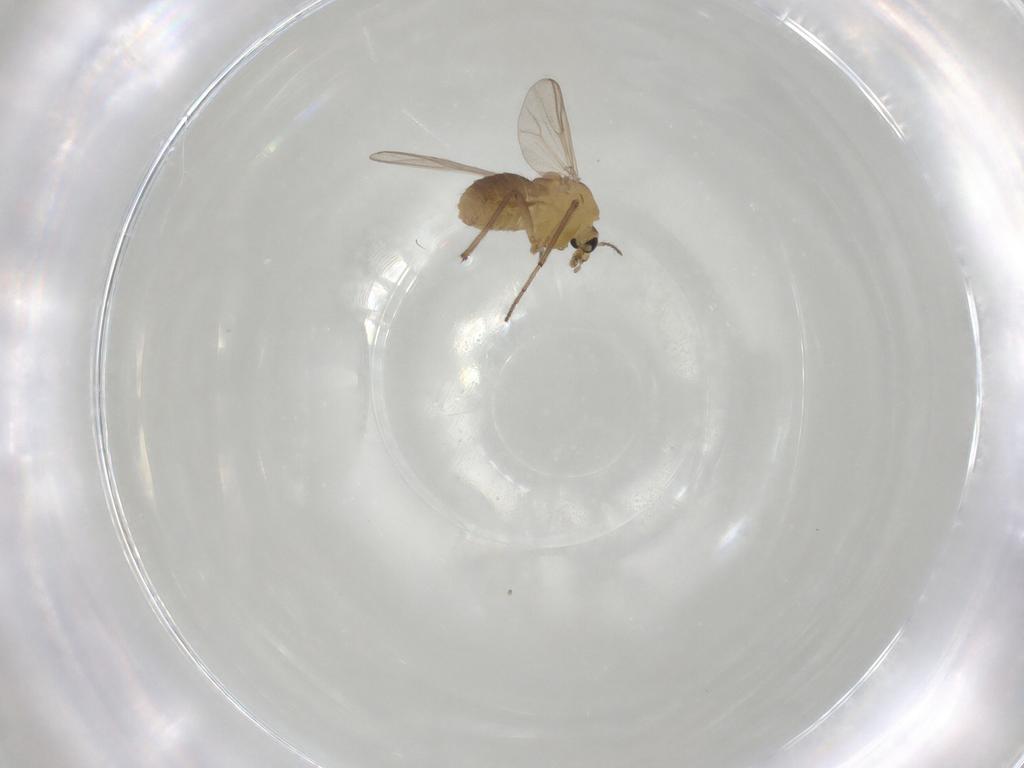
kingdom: Animalia
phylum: Arthropoda
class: Insecta
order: Diptera
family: Chironomidae
